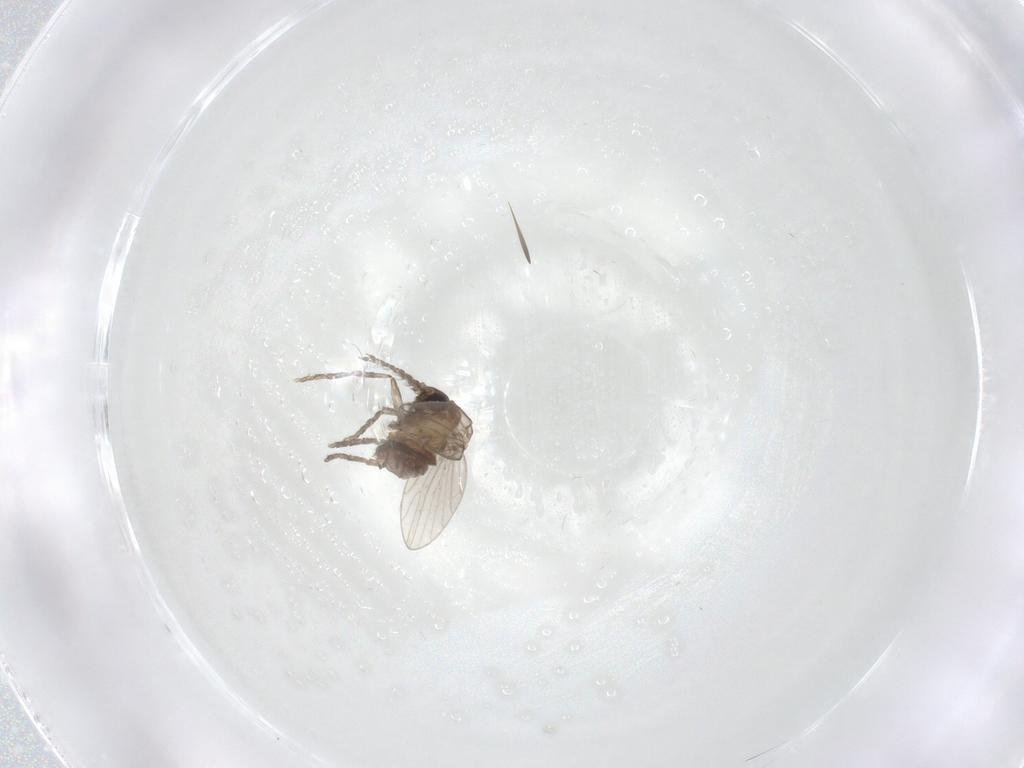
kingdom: Animalia
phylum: Arthropoda
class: Insecta
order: Diptera
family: Psychodidae
